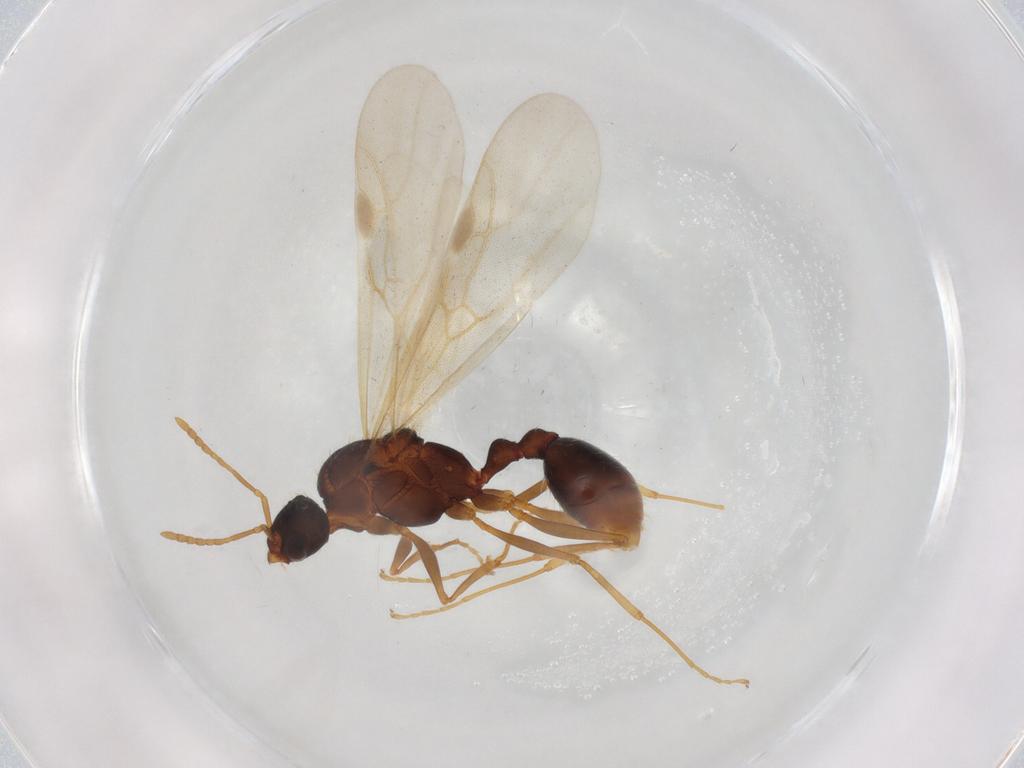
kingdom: Animalia
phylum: Arthropoda
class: Insecta
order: Hymenoptera
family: Formicidae
